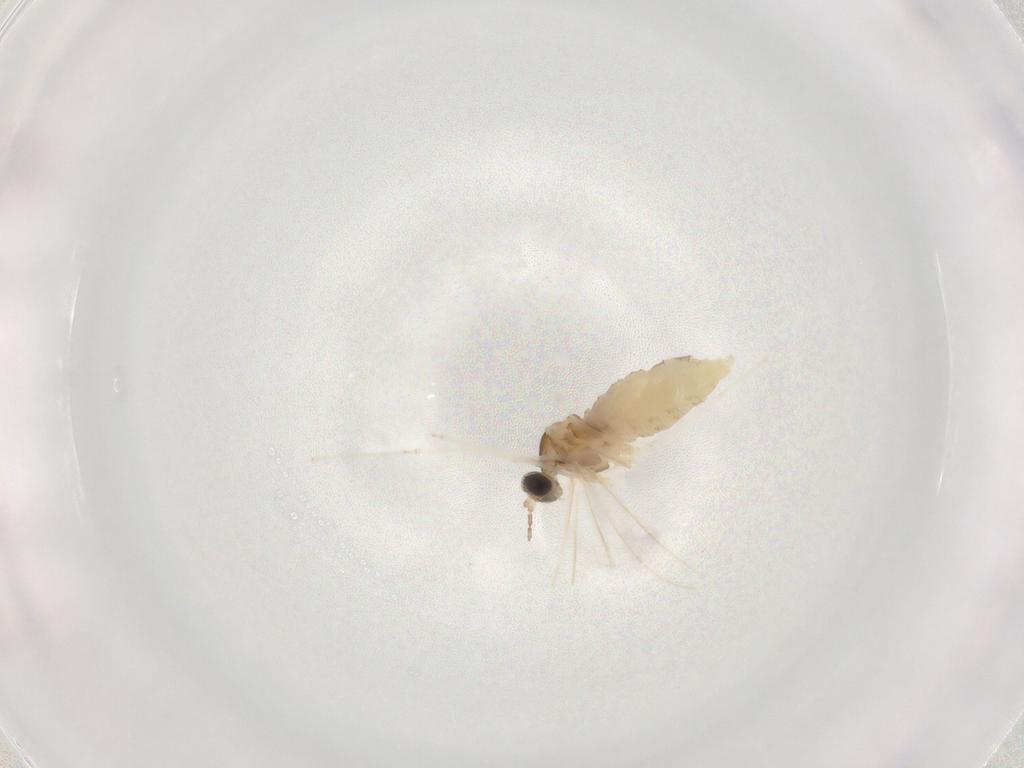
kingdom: Animalia
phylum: Arthropoda
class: Insecta
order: Diptera
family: Cecidomyiidae
